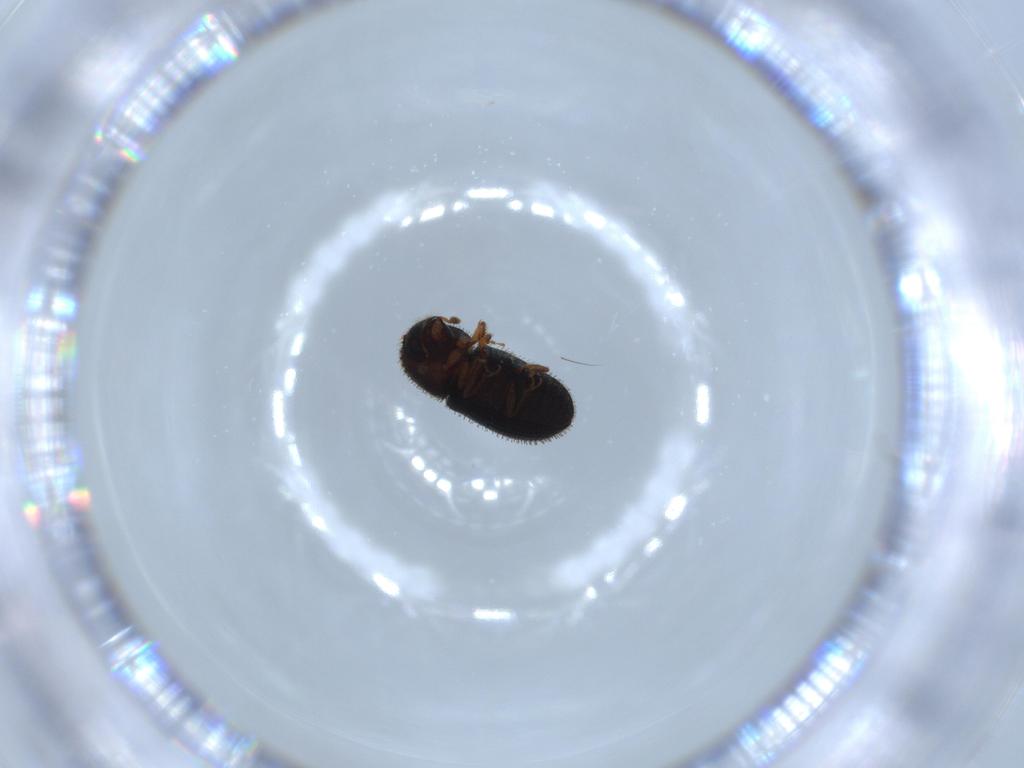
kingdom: Animalia
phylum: Arthropoda
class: Insecta
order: Coleoptera
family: Curculionidae
